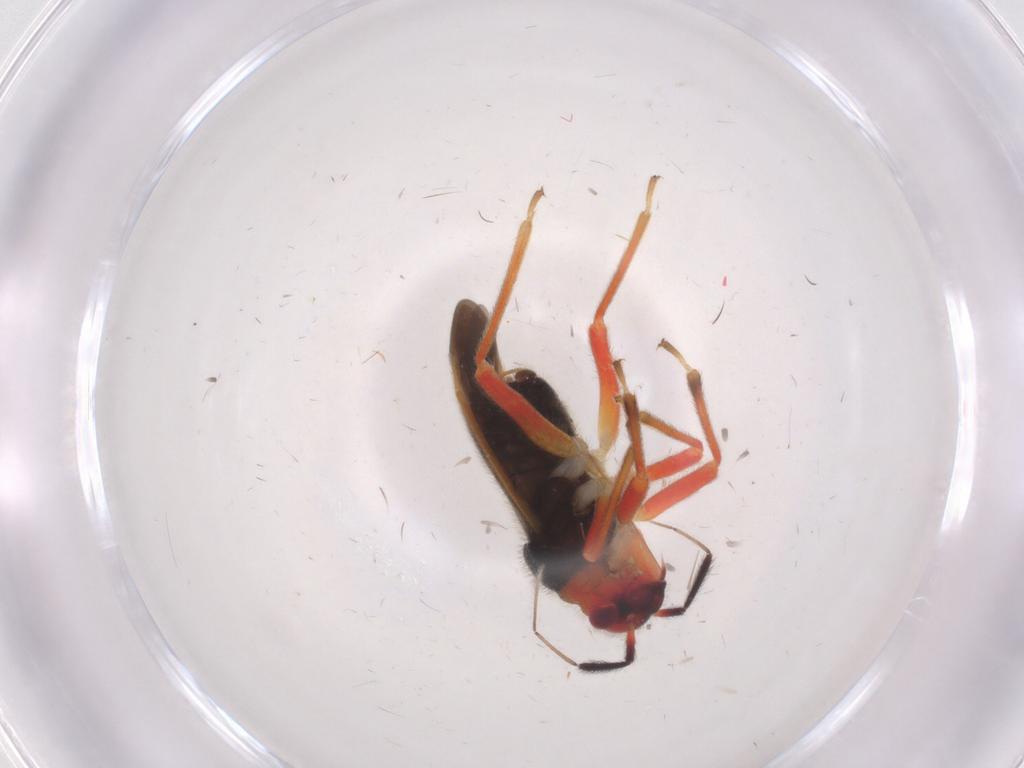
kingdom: Animalia
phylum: Arthropoda
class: Insecta
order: Hemiptera
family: Miridae
